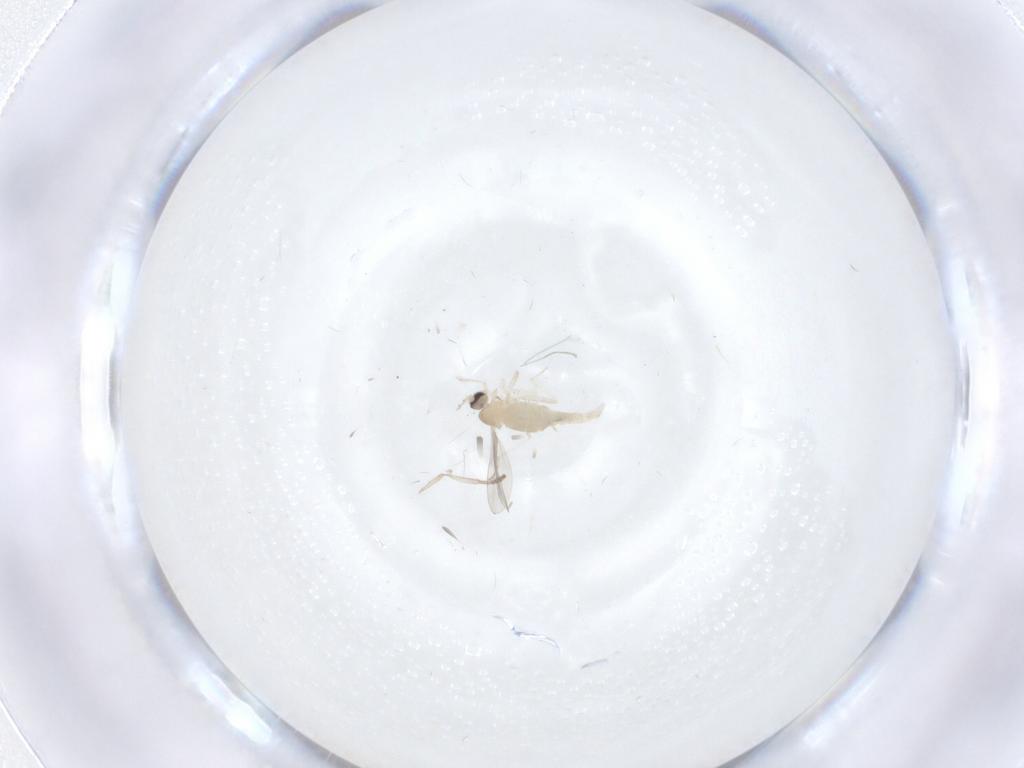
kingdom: Animalia
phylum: Arthropoda
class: Insecta
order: Diptera
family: Cecidomyiidae
